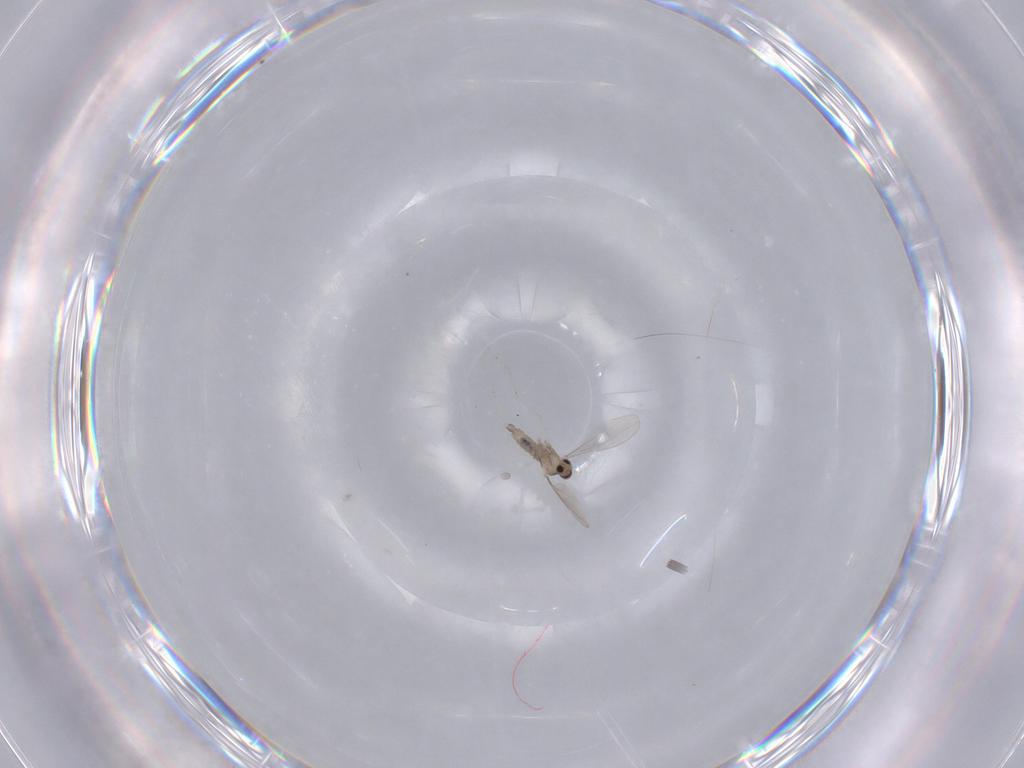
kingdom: Animalia
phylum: Arthropoda
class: Insecta
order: Diptera
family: Cecidomyiidae
